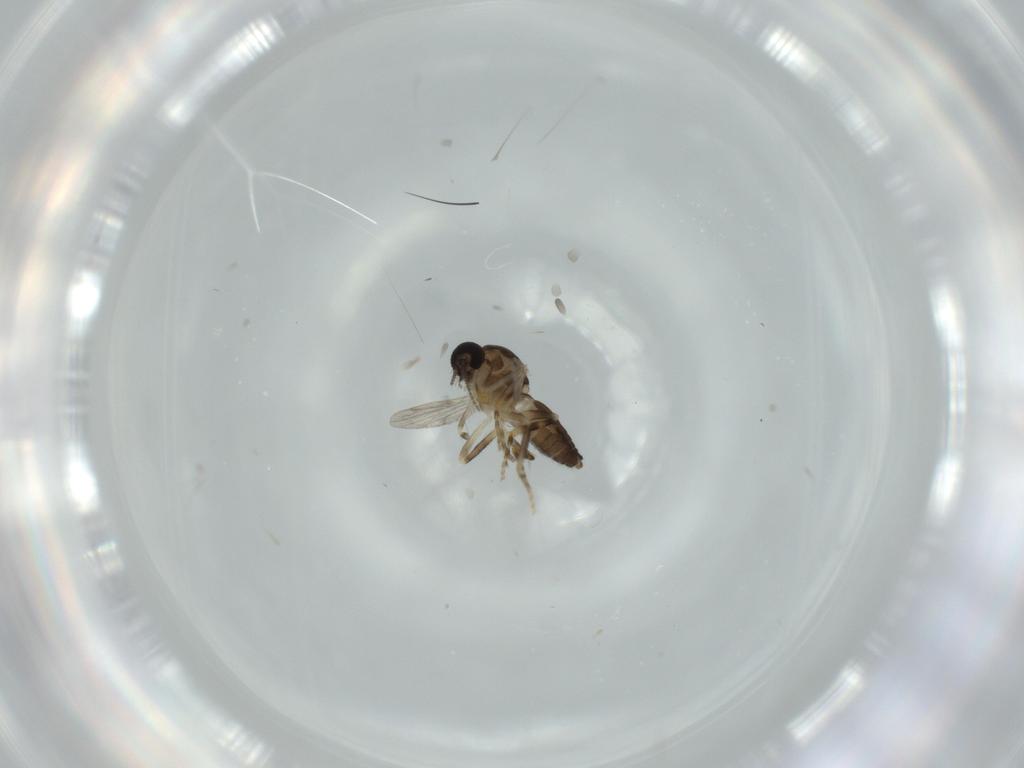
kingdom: Animalia
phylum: Arthropoda
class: Insecta
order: Diptera
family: Ceratopogonidae
